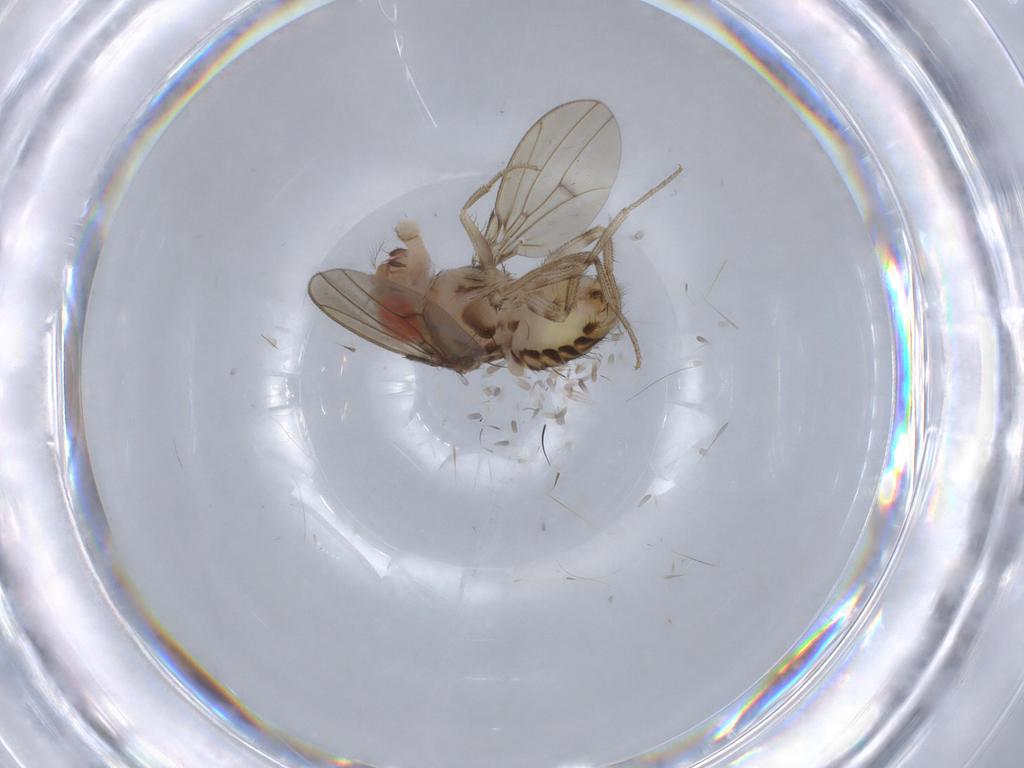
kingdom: Animalia
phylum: Arthropoda
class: Insecta
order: Diptera
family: Drosophilidae
